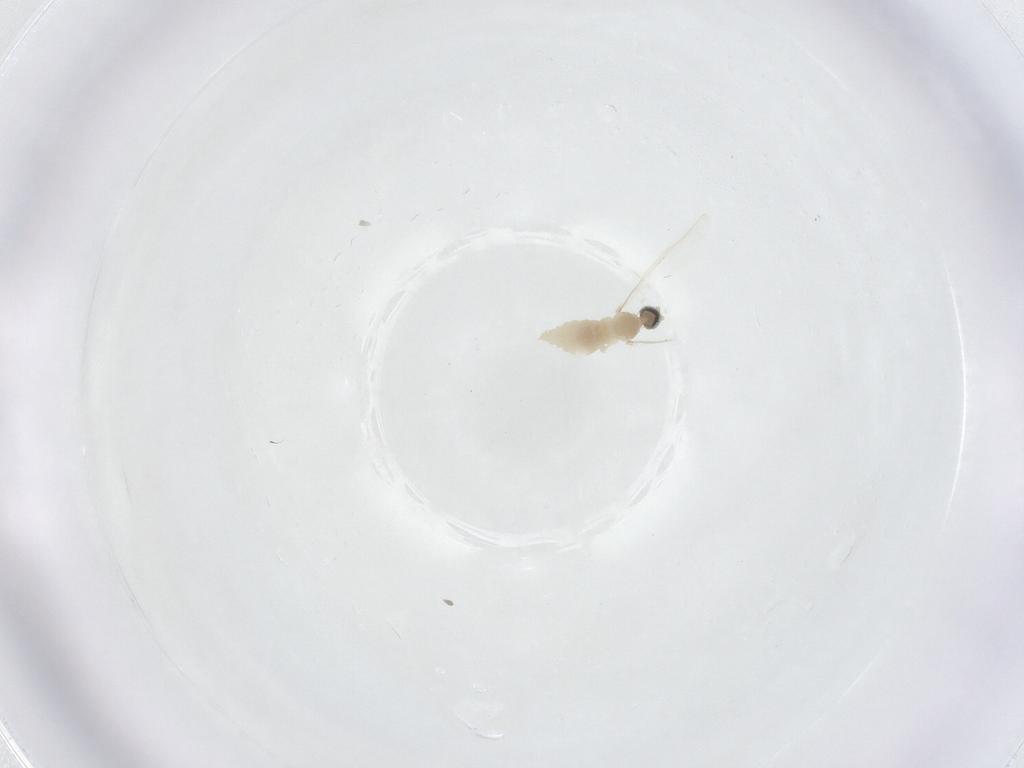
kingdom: Animalia
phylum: Arthropoda
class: Insecta
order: Diptera
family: Cecidomyiidae
